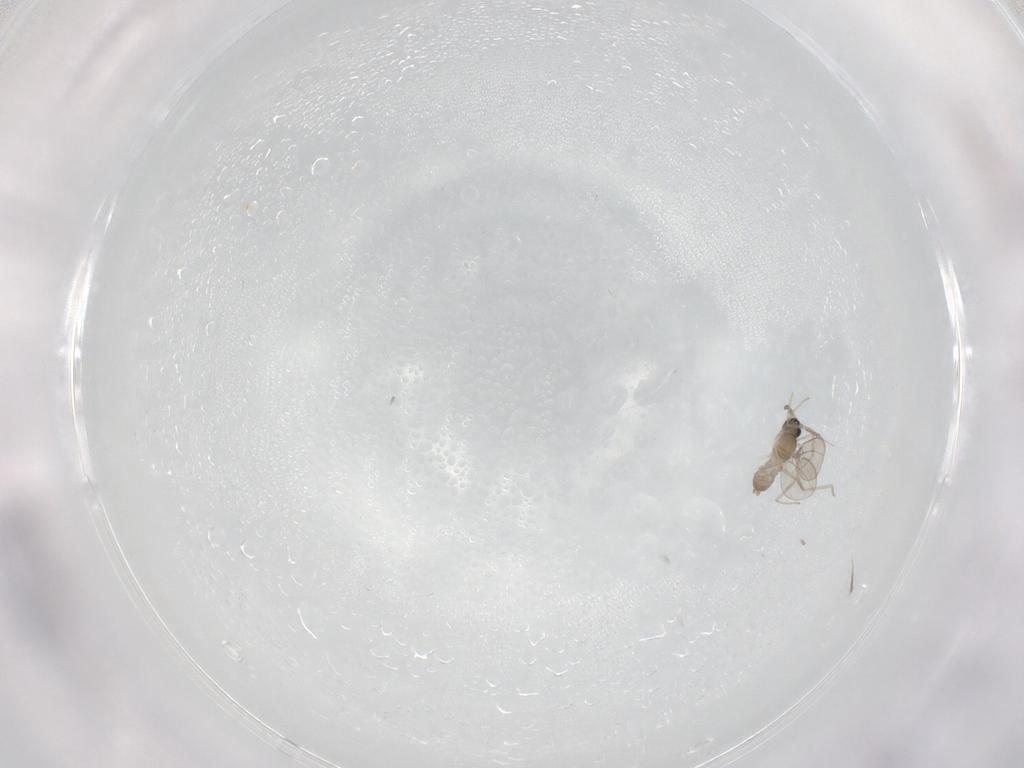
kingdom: Animalia
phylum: Arthropoda
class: Insecta
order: Diptera
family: Cecidomyiidae
